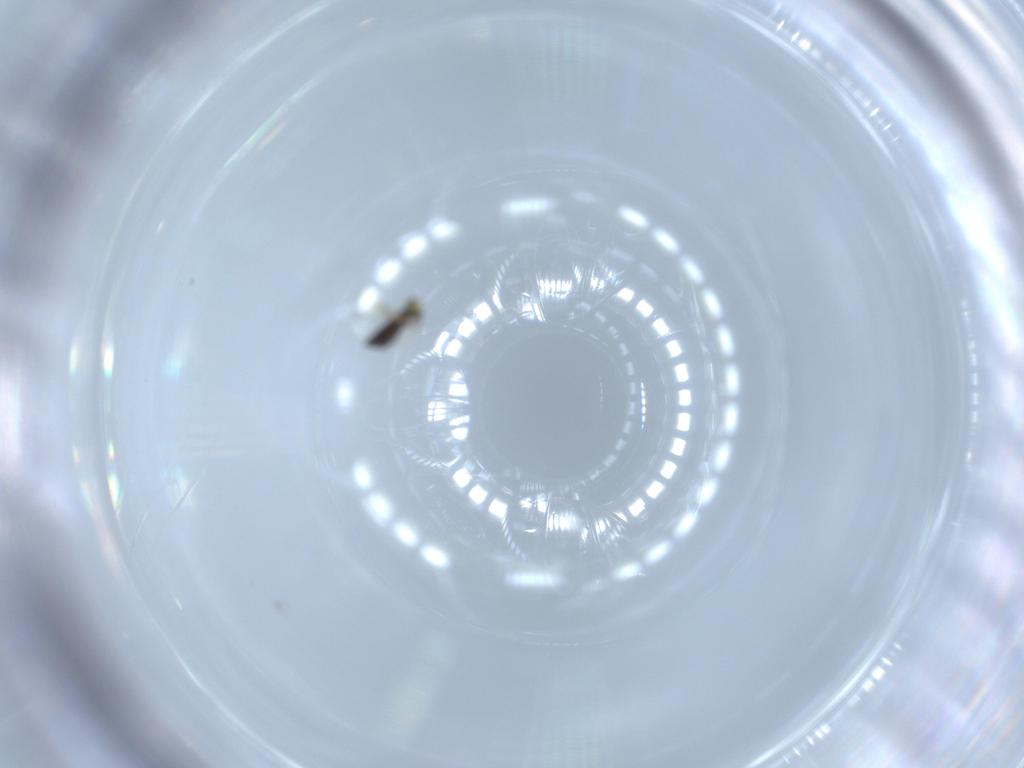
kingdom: Animalia
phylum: Arthropoda
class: Insecta
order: Hymenoptera
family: Signiphoridae
